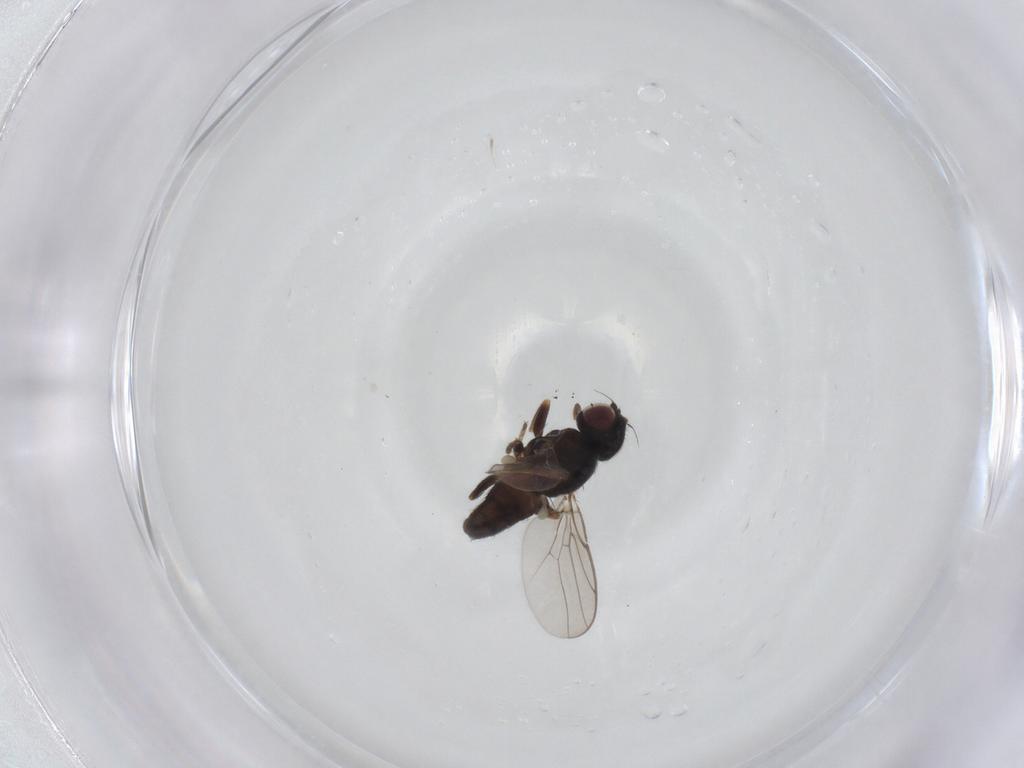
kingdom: Animalia
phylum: Arthropoda
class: Insecta
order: Diptera
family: Chloropidae
